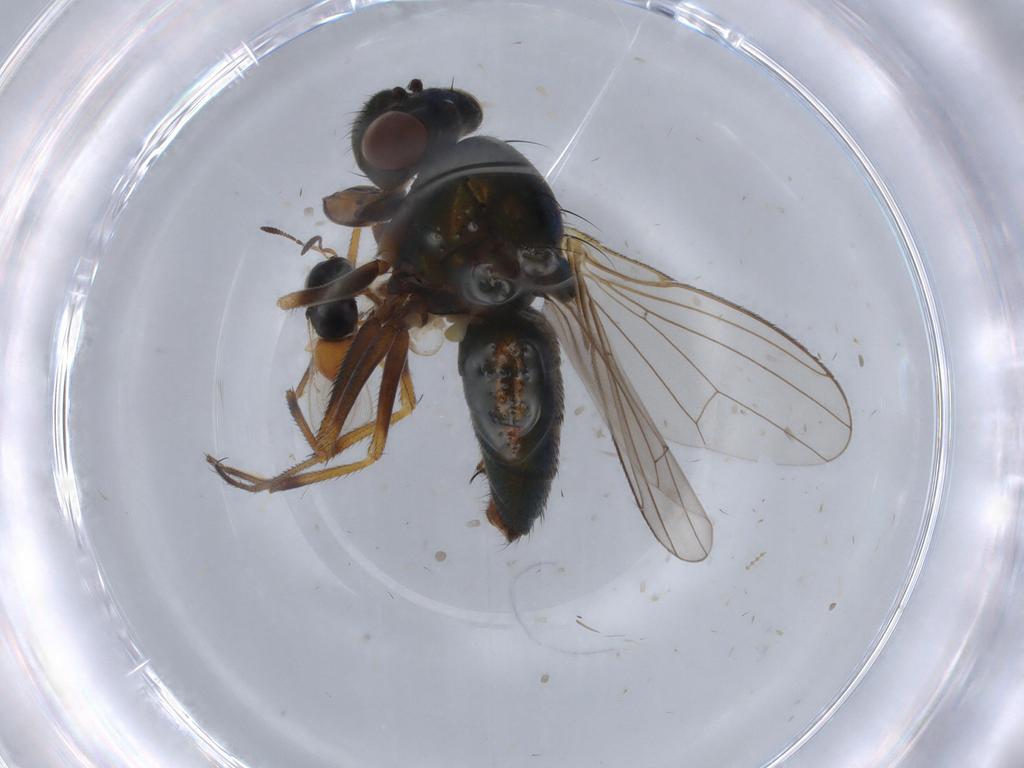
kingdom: Animalia
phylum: Arthropoda
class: Insecta
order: Diptera
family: Ephydridae
